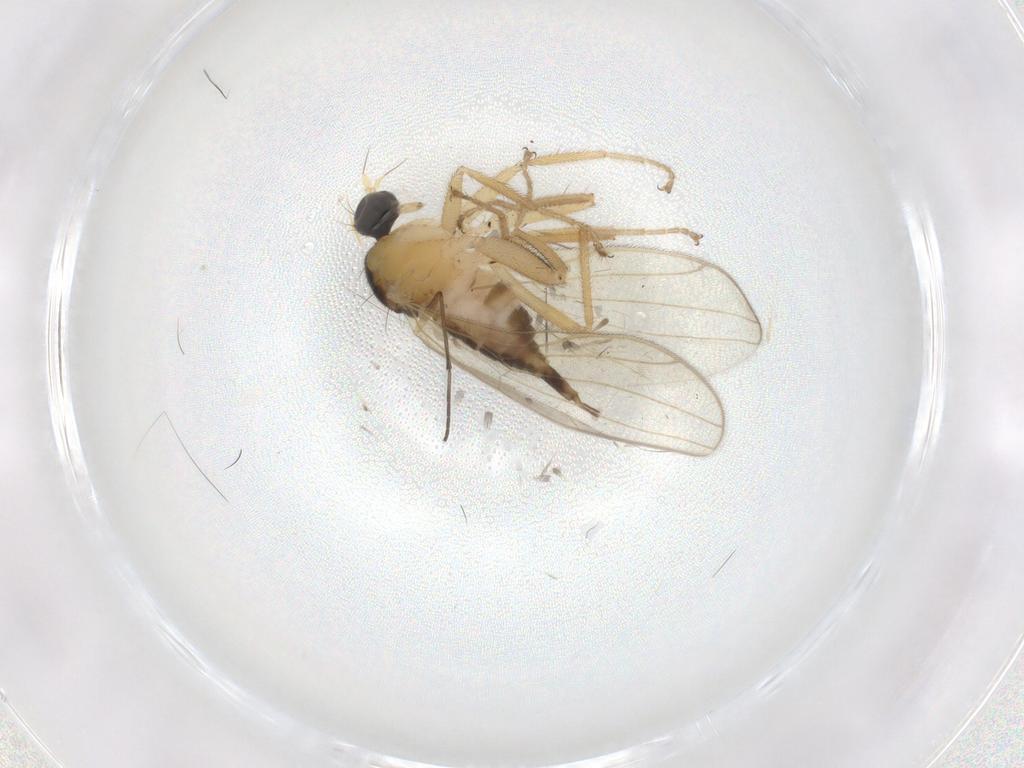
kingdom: Animalia
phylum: Arthropoda
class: Insecta
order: Diptera
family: Hybotidae
